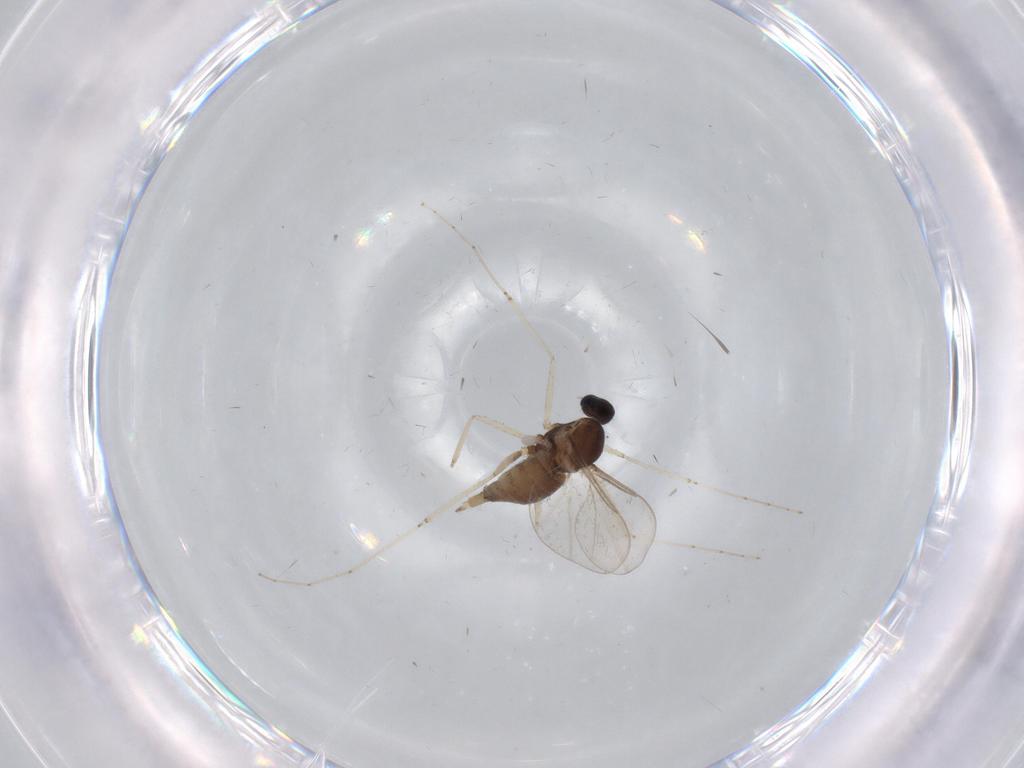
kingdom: Animalia
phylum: Arthropoda
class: Insecta
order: Diptera
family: Cecidomyiidae
